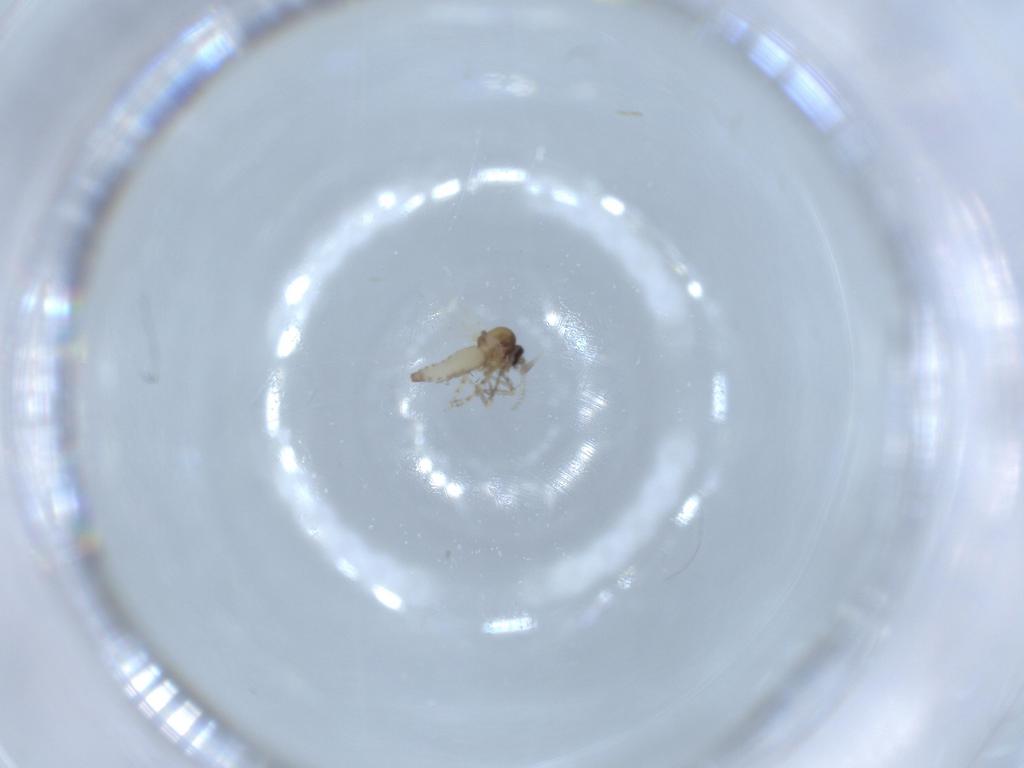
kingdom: Animalia
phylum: Arthropoda
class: Insecta
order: Diptera
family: Ceratopogonidae
